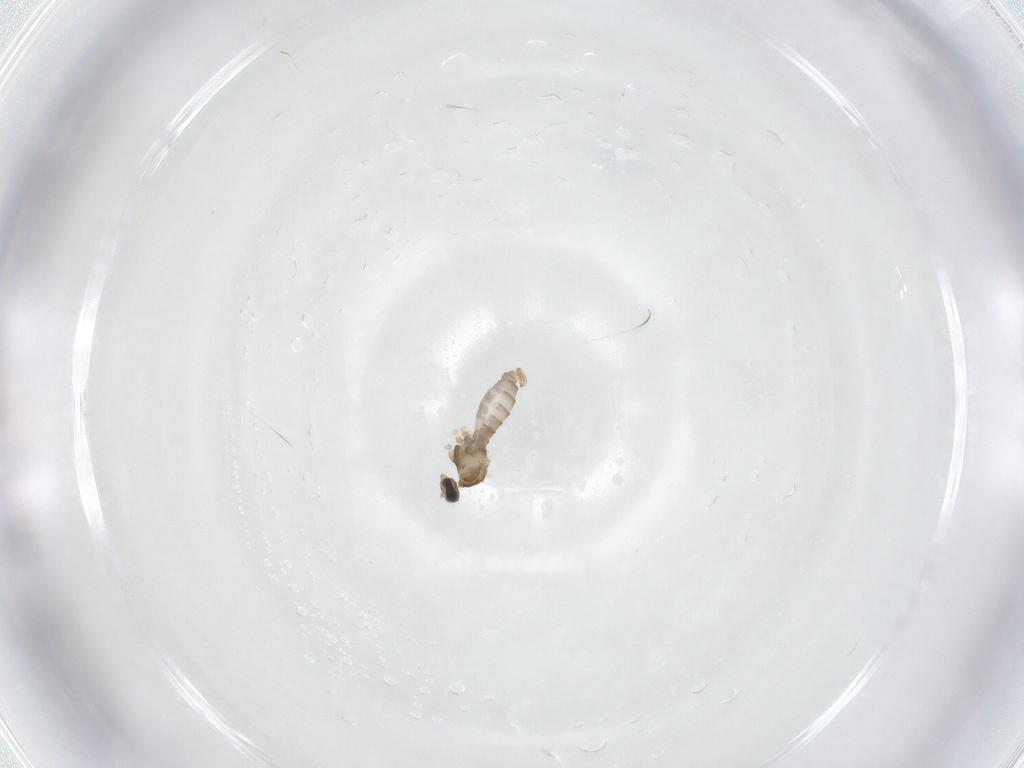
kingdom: Animalia
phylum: Arthropoda
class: Insecta
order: Diptera
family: Cecidomyiidae
